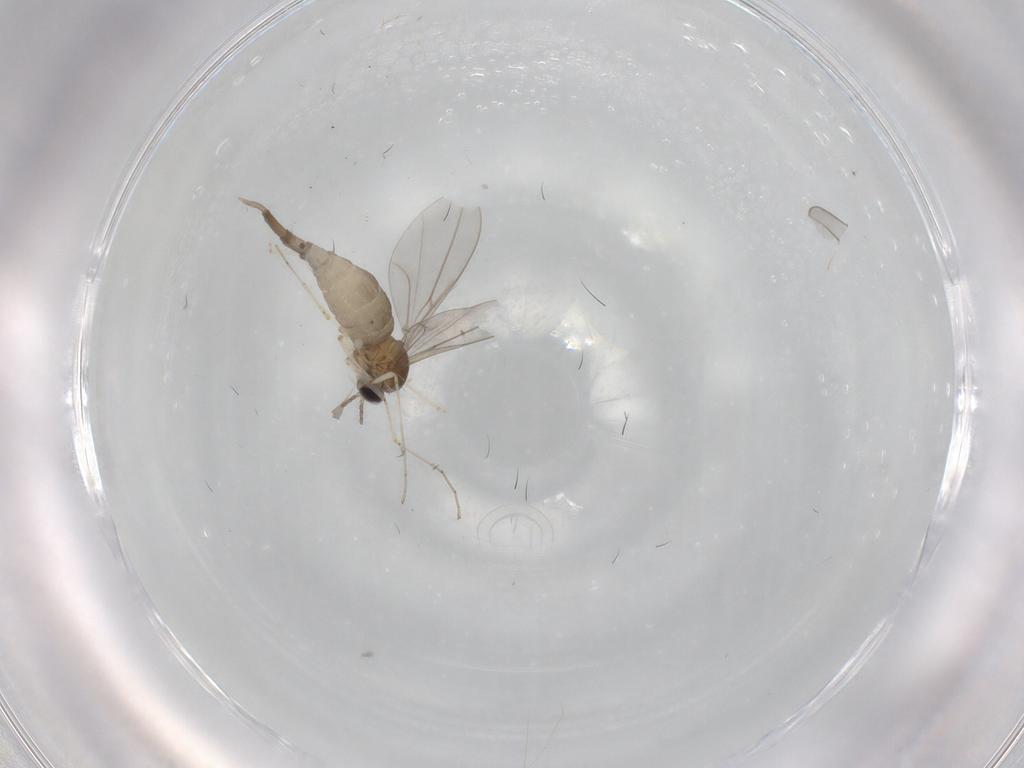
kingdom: Animalia
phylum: Arthropoda
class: Insecta
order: Diptera
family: Cecidomyiidae
